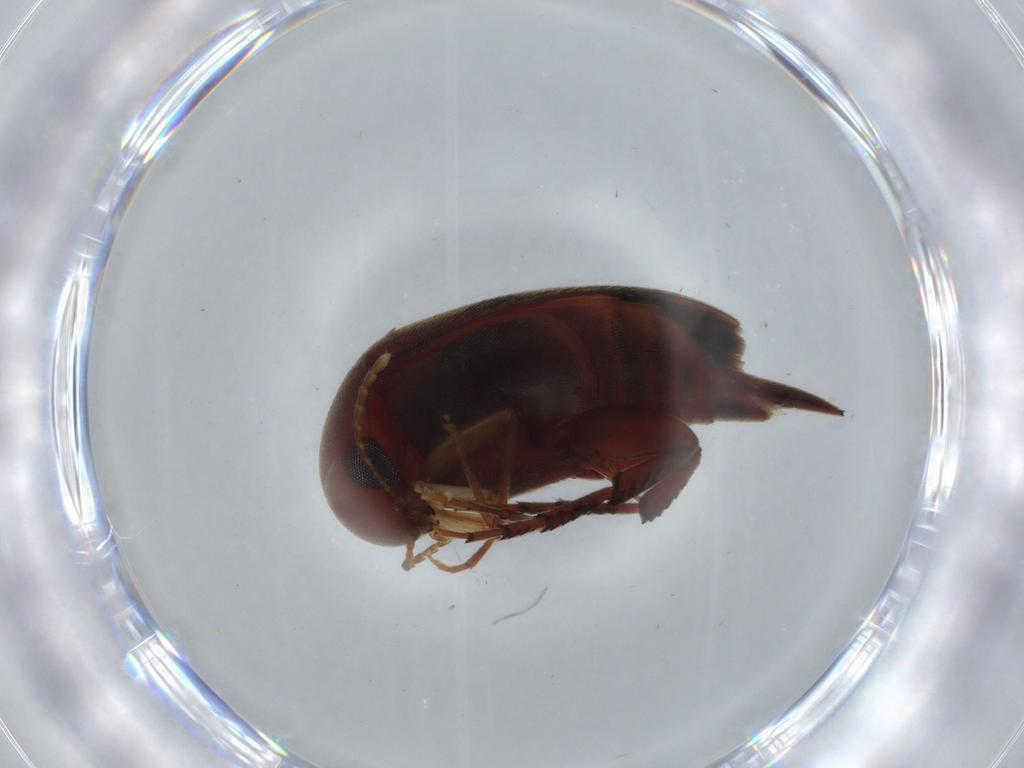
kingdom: Animalia
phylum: Arthropoda
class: Insecta
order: Coleoptera
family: Mordellidae
